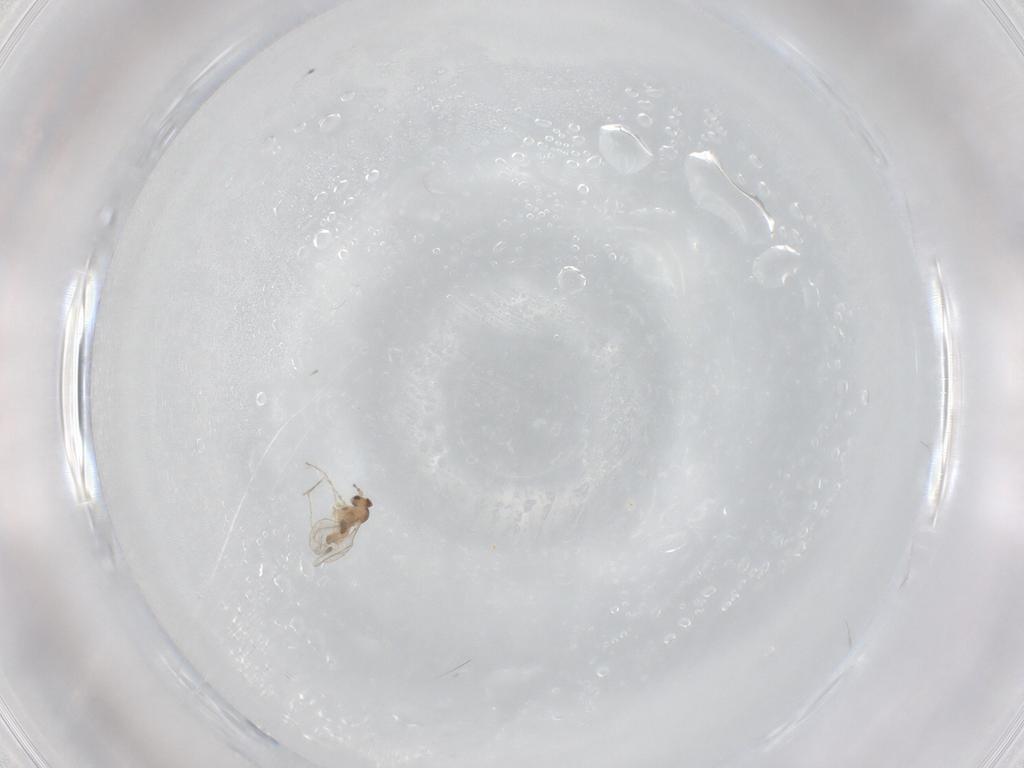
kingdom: Animalia
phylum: Arthropoda
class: Insecta
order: Diptera
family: Cecidomyiidae
